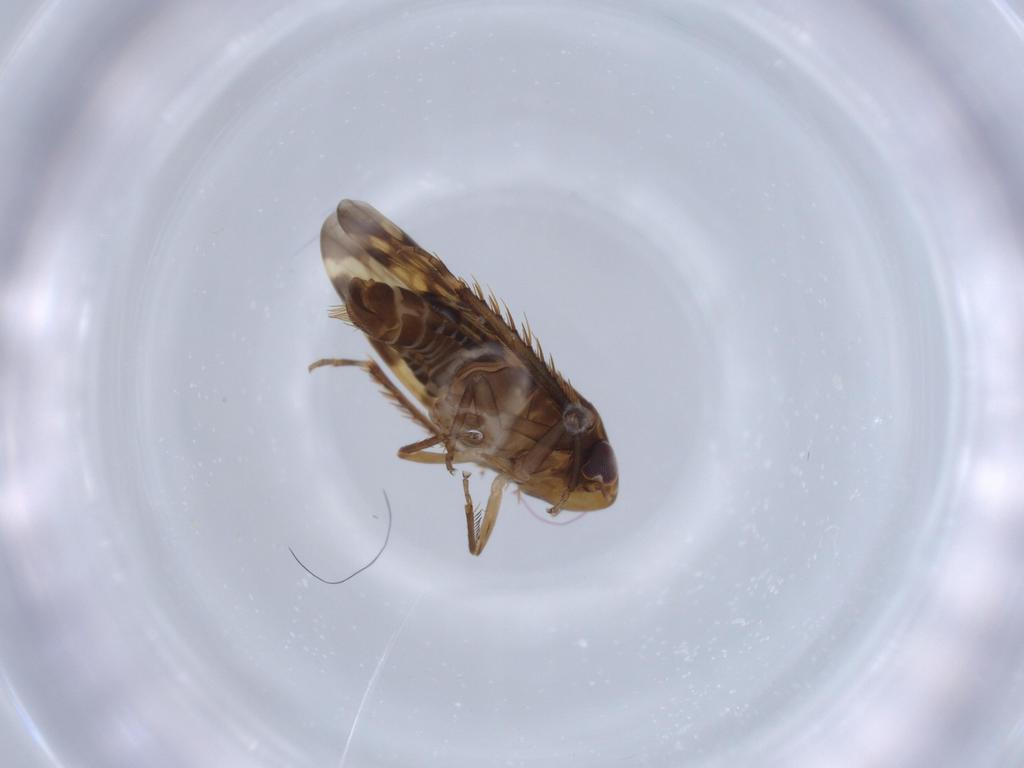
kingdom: Animalia
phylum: Arthropoda
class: Insecta
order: Hemiptera
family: Cicadellidae
